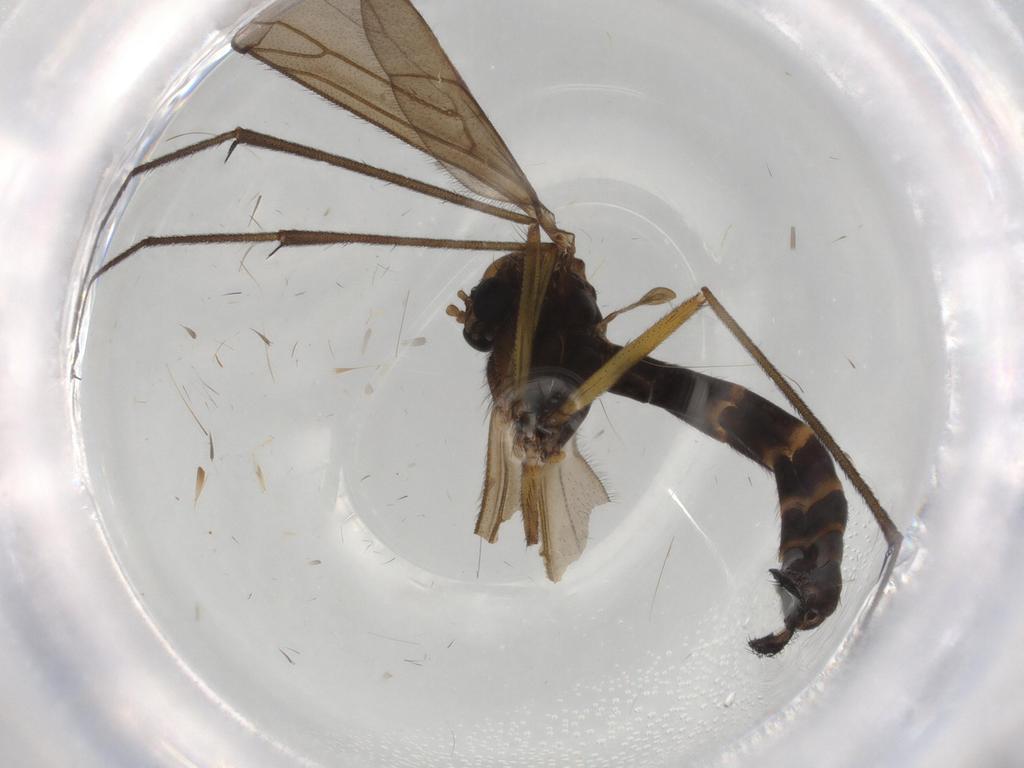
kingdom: Animalia
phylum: Arthropoda
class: Insecta
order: Diptera
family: Ditomyiidae
